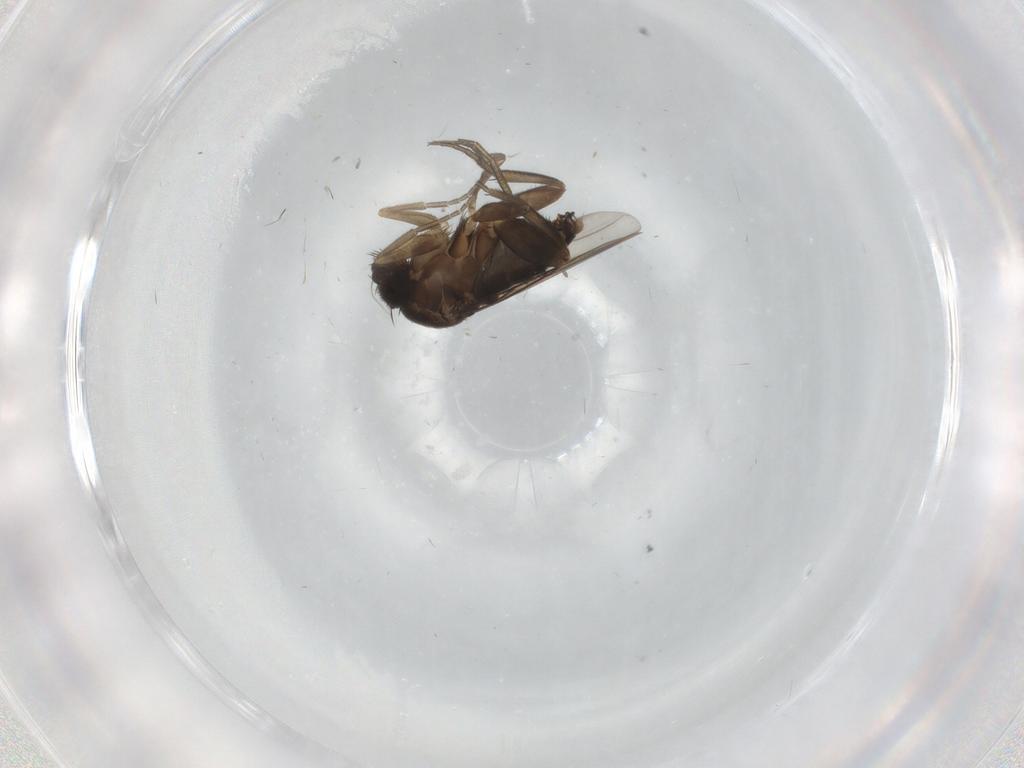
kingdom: Animalia
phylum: Arthropoda
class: Insecta
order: Diptera
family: Phoridae
